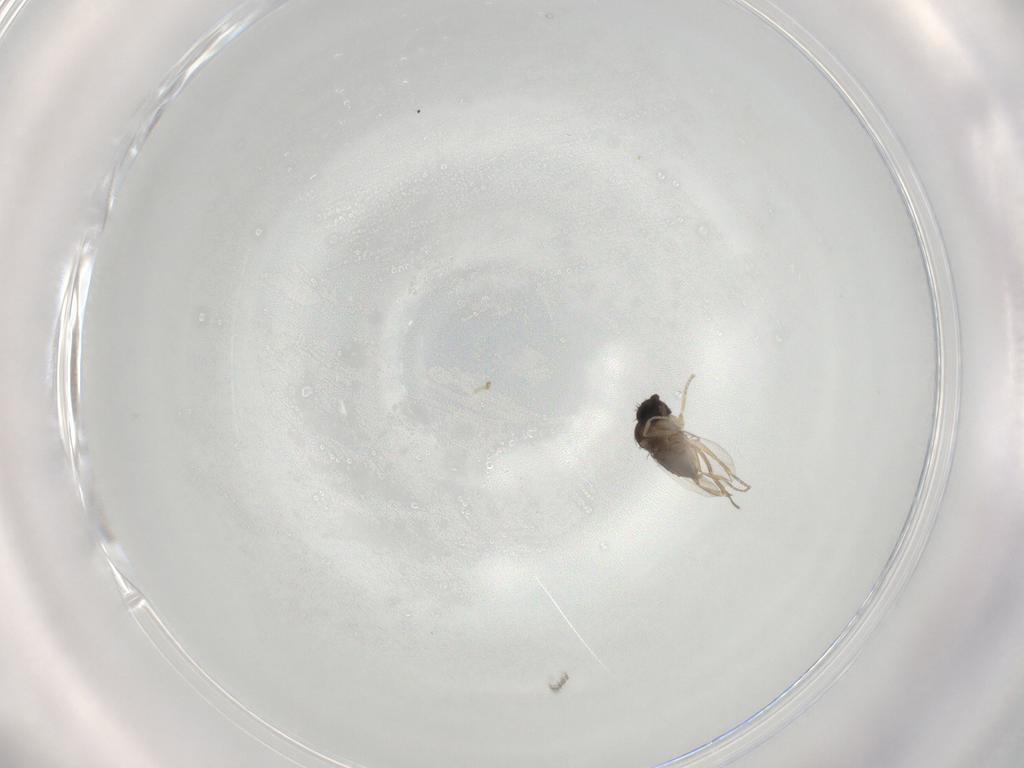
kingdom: Animalia
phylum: Arthropoda
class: Insecta
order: Diptera
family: Phoridae
